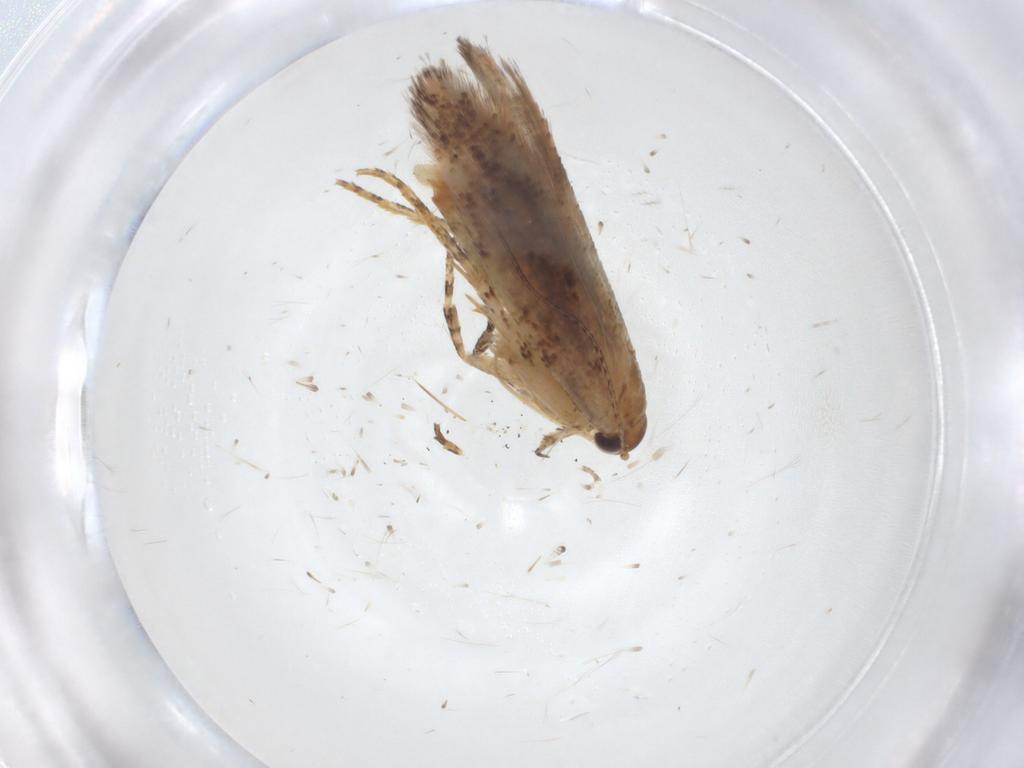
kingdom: Animalia
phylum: Arthropoda
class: Insecta
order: Lepidoptera
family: Gelechiidae
